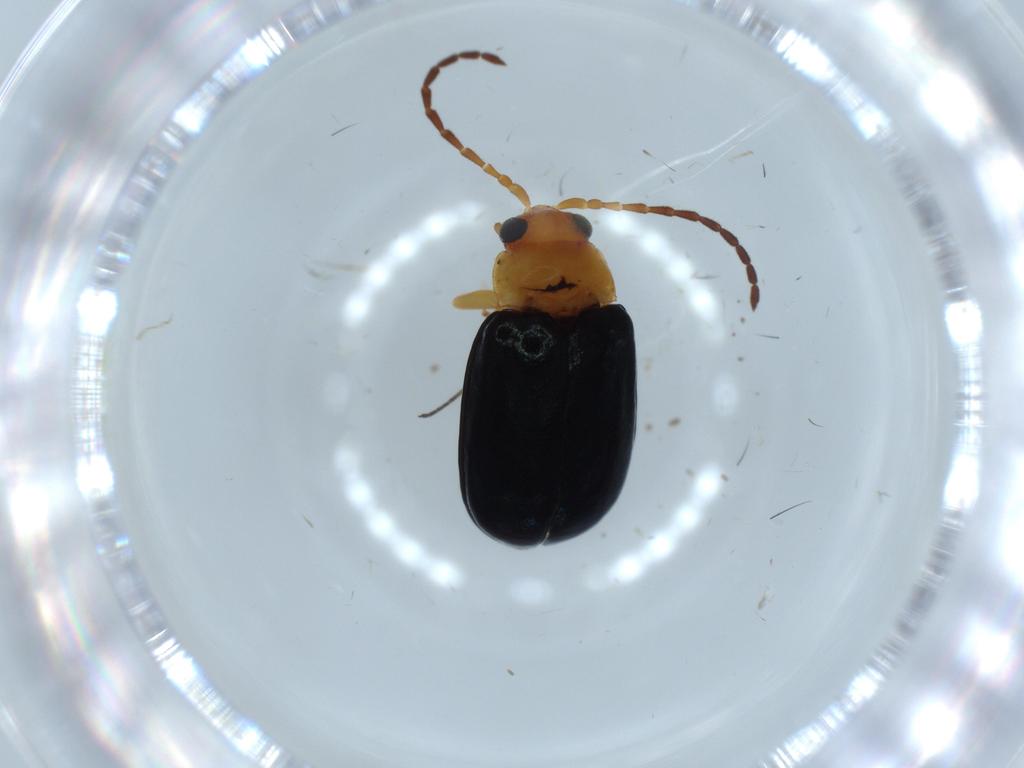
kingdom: Animalia
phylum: Arthropoda
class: Insecta
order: Coleoptera
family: Chrysomelidae
